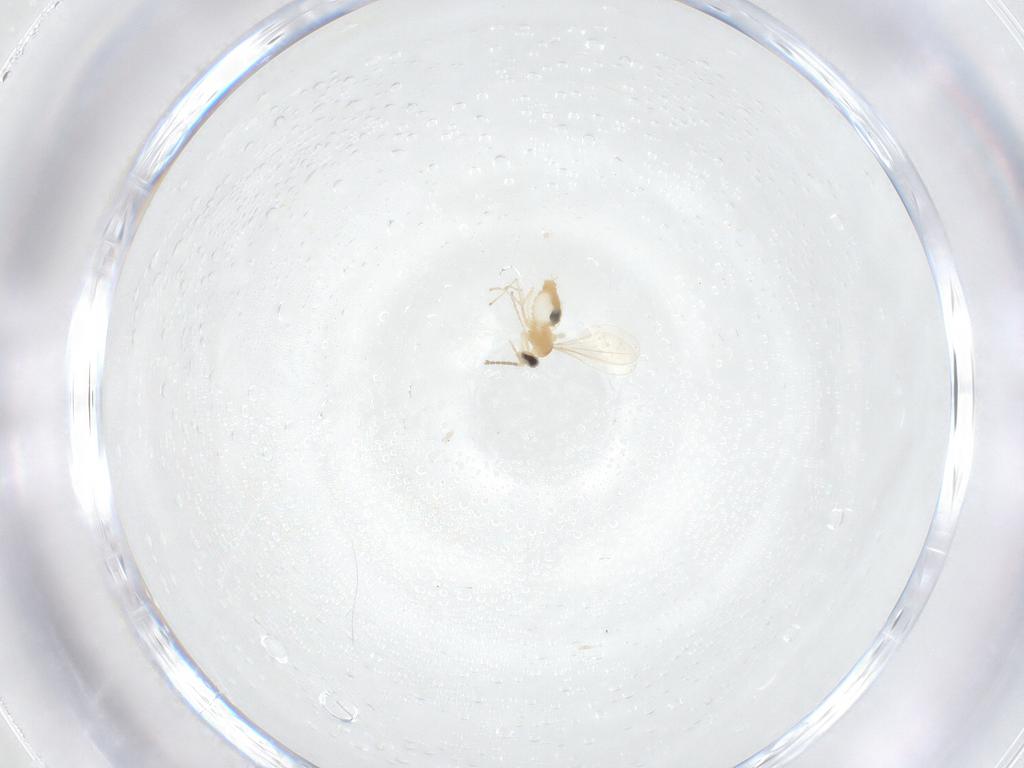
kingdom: Animalia
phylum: Arthropoda
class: Insecta
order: Diptera
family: Cecidomyiidae
